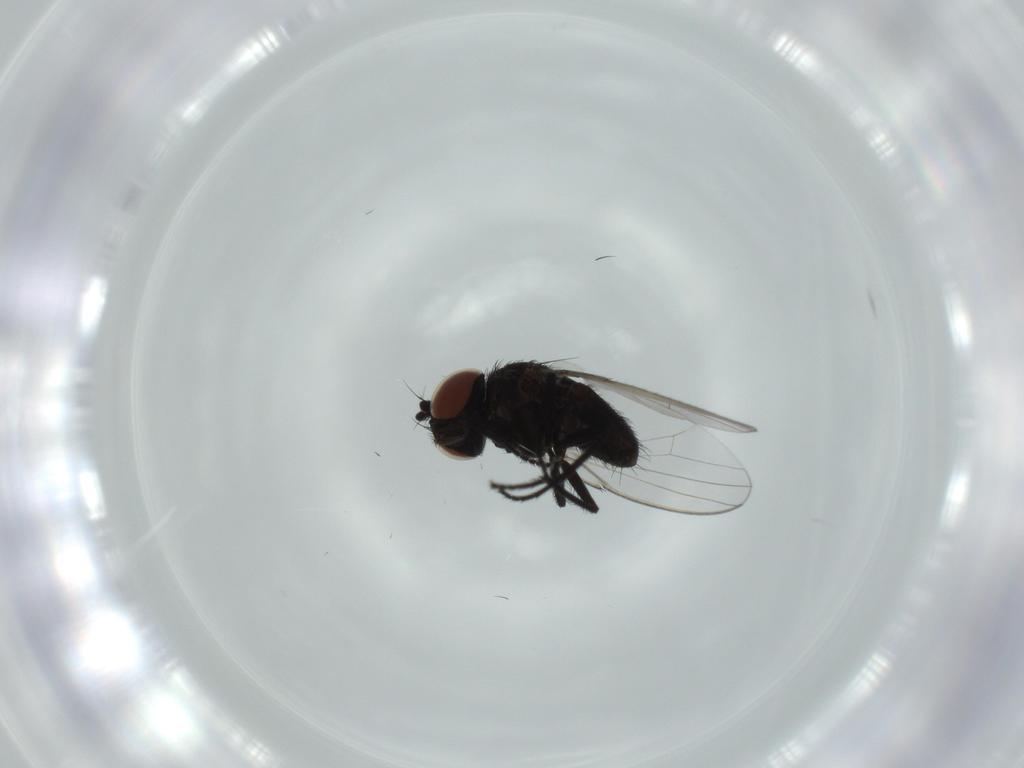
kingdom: Animalia
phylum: Arthropoda
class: Insecta
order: Diptera
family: Milichiidae
